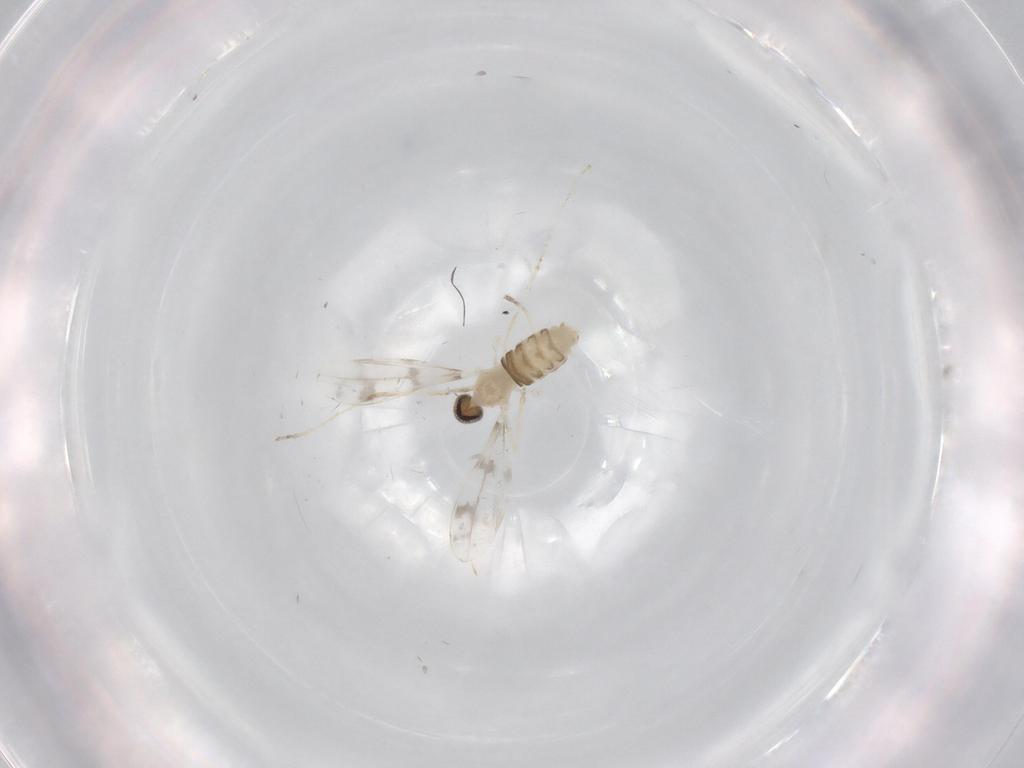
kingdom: Animalia
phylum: Arthropoda
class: Insecta
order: Diptera
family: Cecidomyiidae
